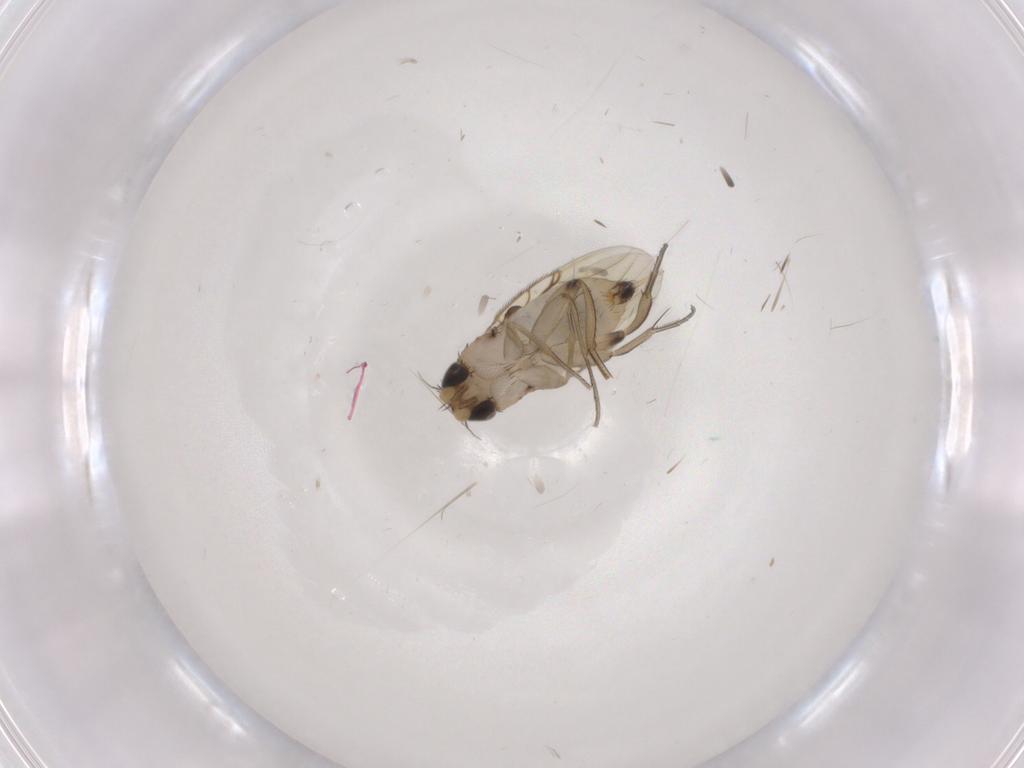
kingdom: Animalia
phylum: Arthropoda
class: Insecta
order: Diptera
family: Phoridae
